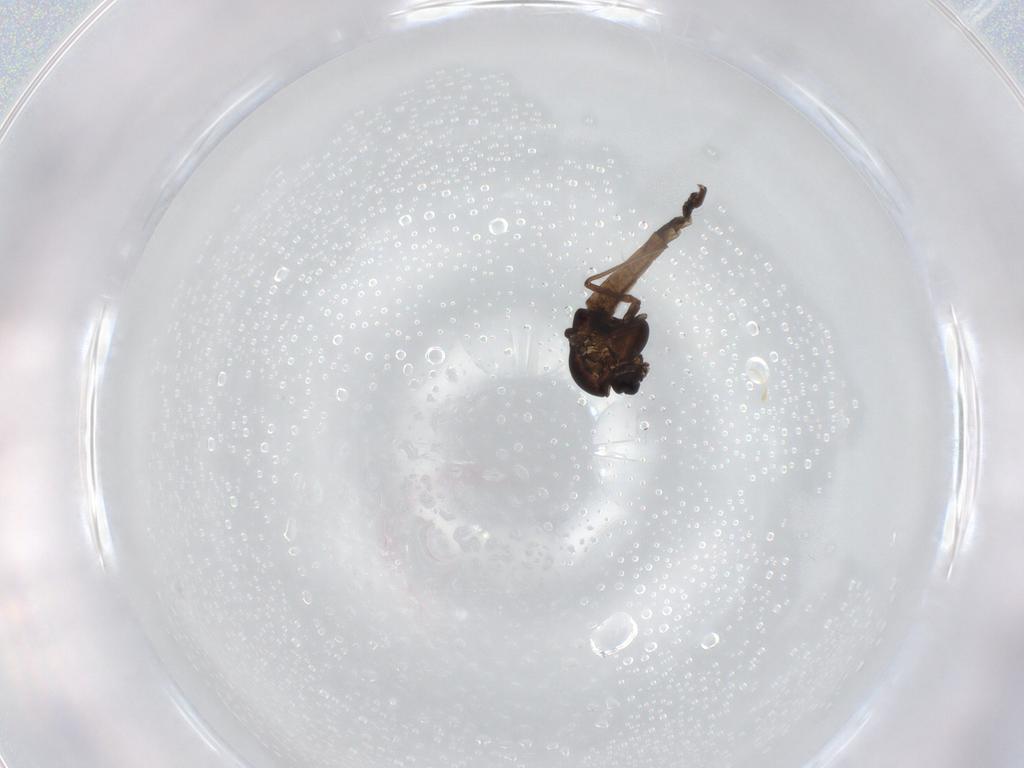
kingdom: Animalia
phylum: Arthropoda
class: Insecta
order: Diptera
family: Chironomidae
